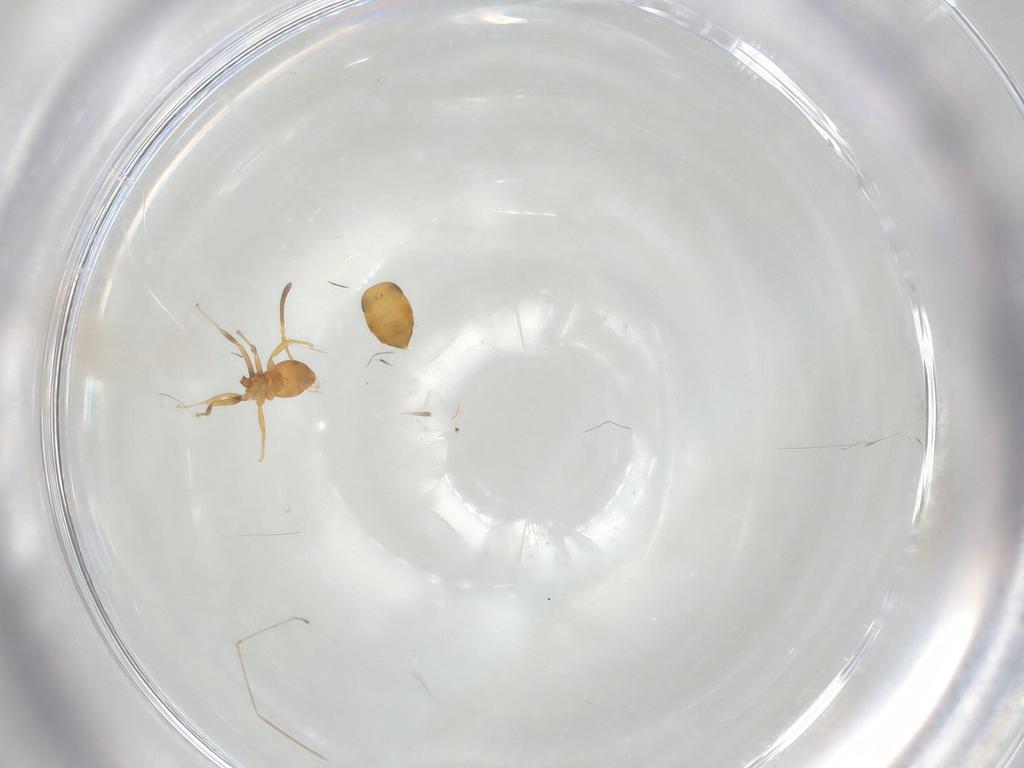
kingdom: Animalia
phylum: Arthropoda
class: Insecta
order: Hymenoptera
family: Formicidae
